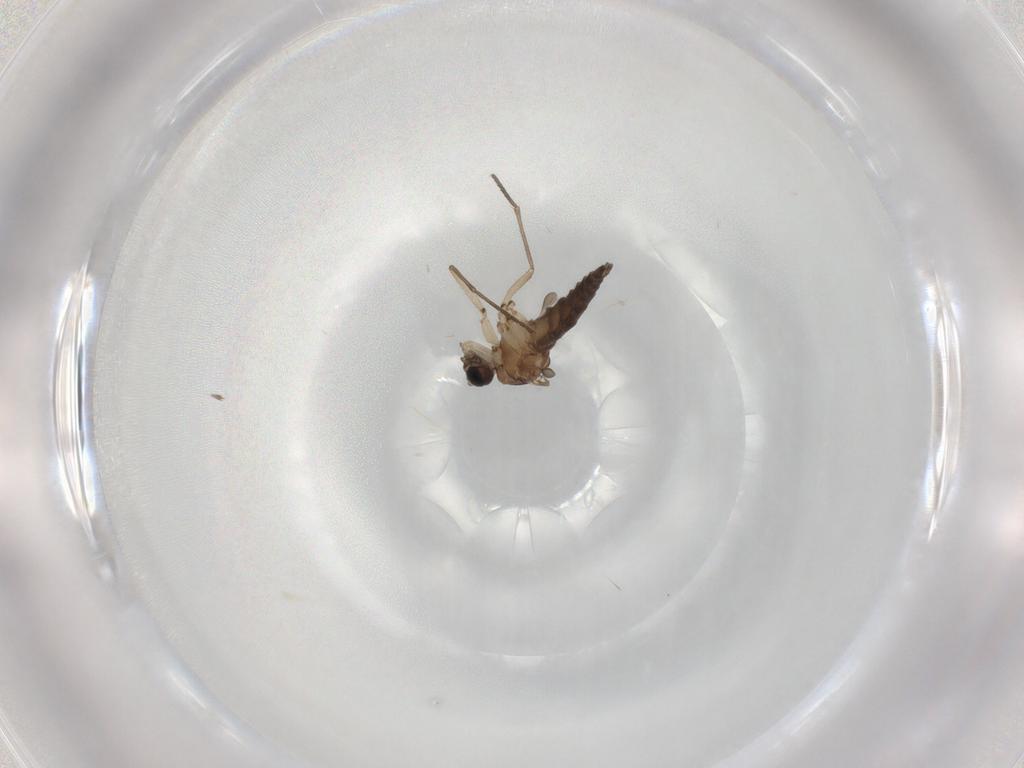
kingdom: Animalia
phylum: Arthropoda
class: Insecta
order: Diptera
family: Sciaridae
